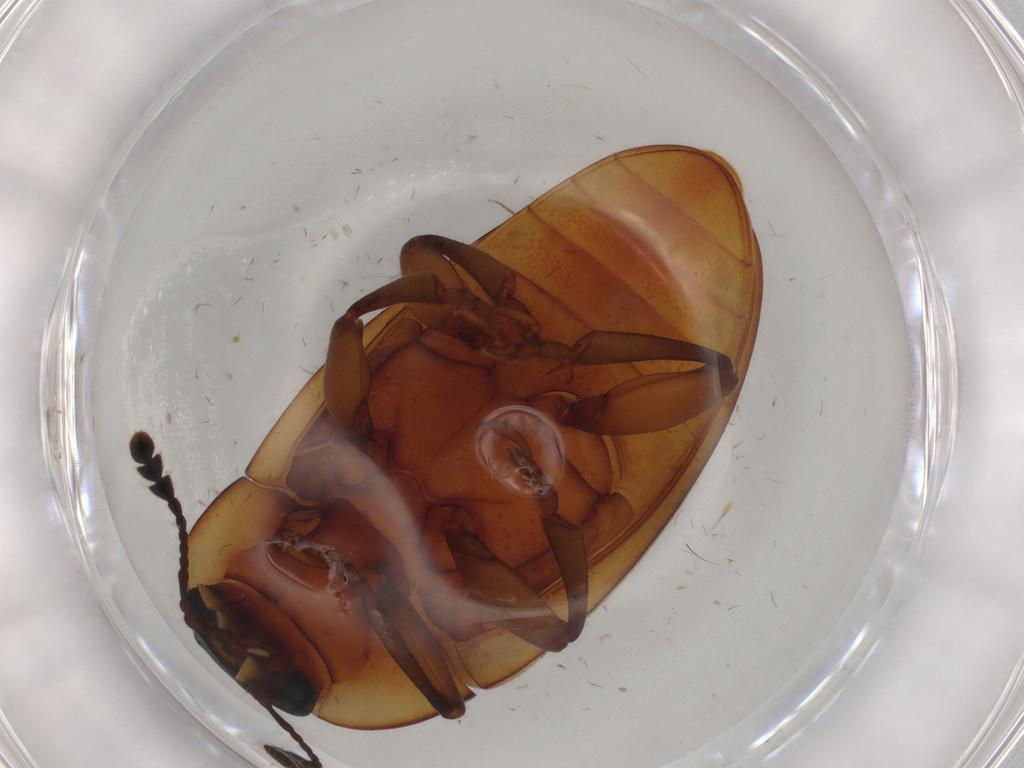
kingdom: Animalia
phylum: Arthropoda
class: Insecta
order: Coleoptera
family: Erotylidae
